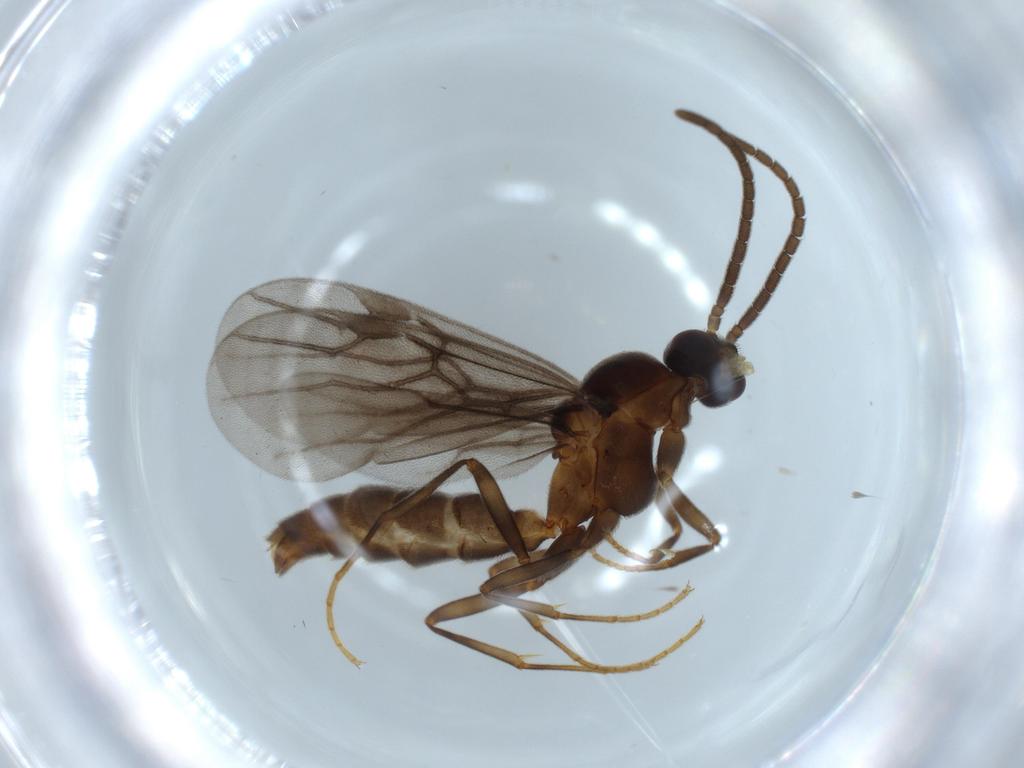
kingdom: Animalia
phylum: Arthropoda
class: Insecta
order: Hymenoptera
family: Formicidae
